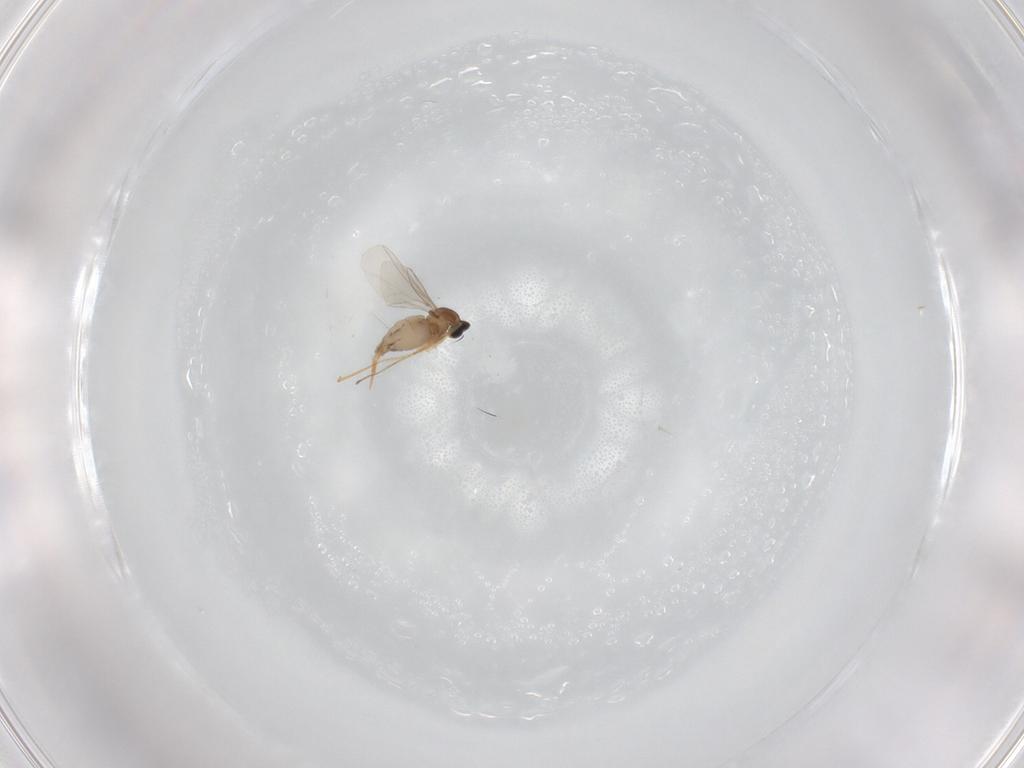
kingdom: Animalia
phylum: Arthropoda
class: Insecta
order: Diptera
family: Cecidomyiidae
